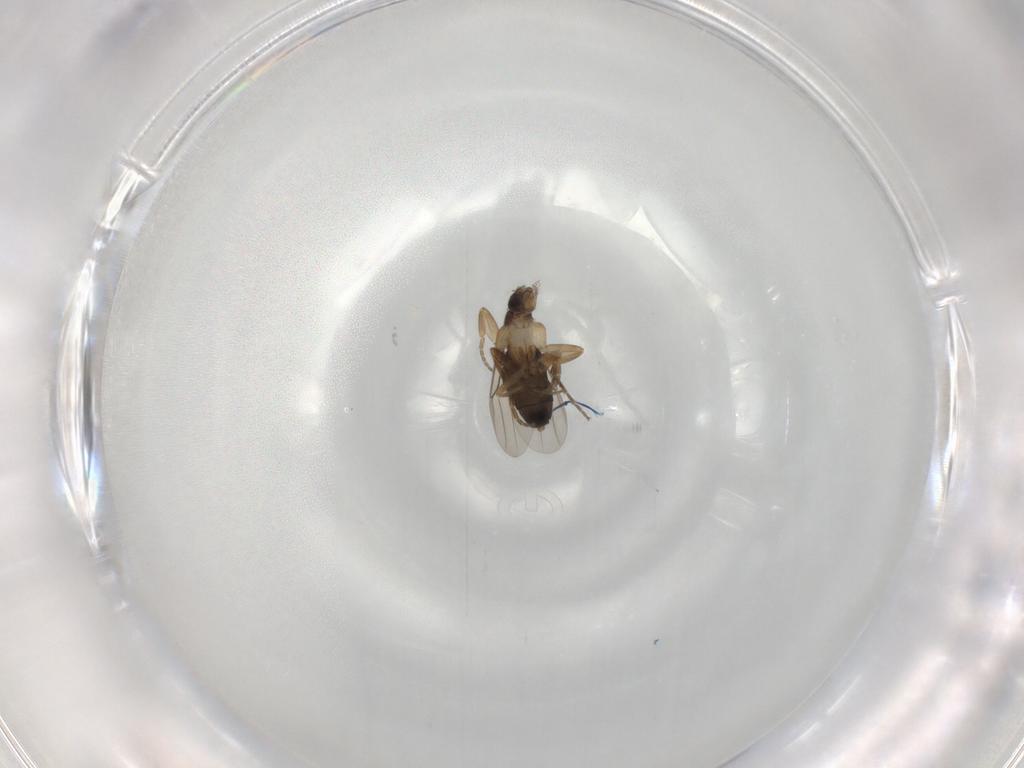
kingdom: Animalia
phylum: Arthropoda
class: Insecta
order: Diptera
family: Phoridae
